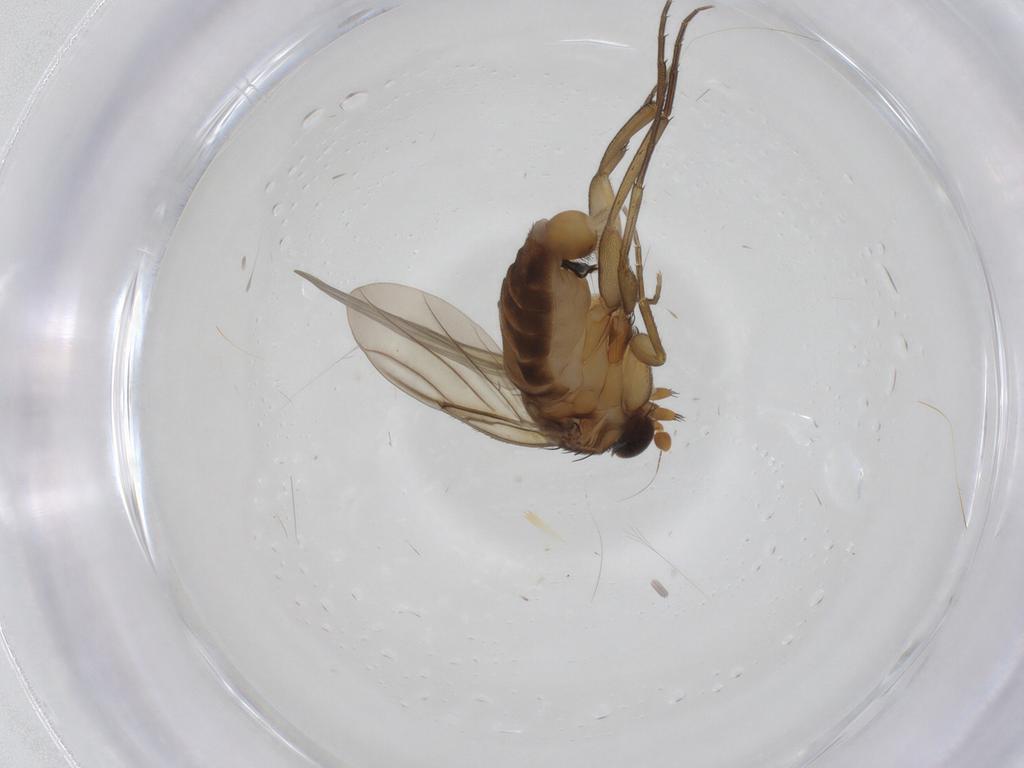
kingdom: Animalia
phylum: Arthropoda
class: Insecta
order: Diptera
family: Phoridae
